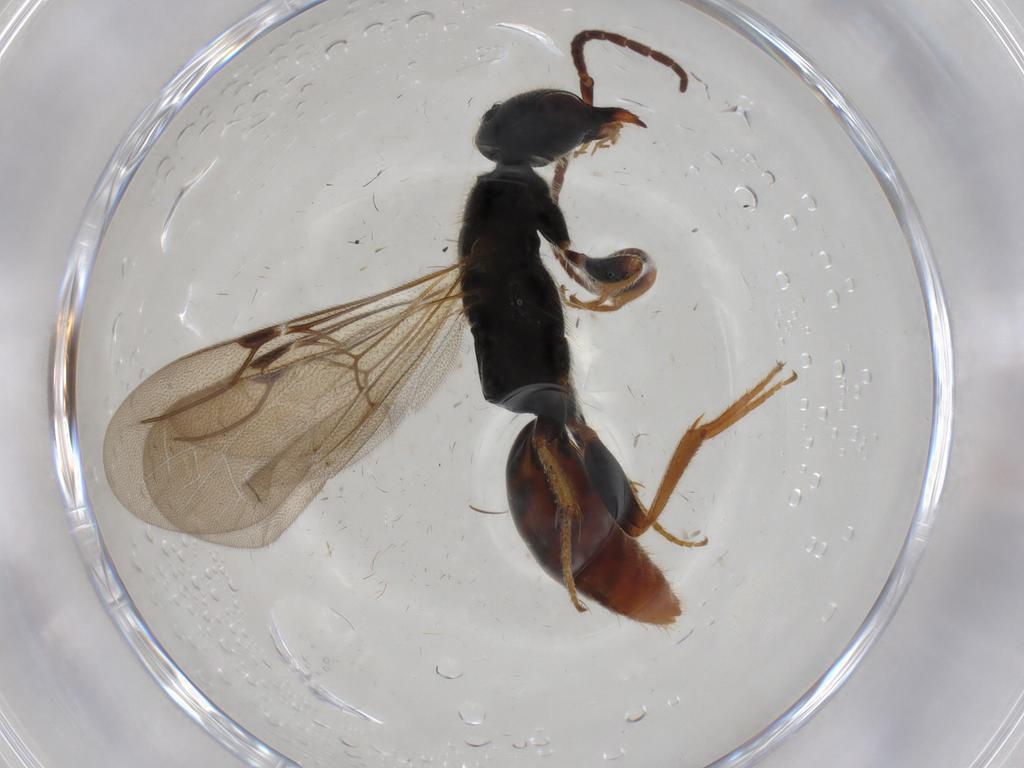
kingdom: Animalia
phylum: Arthropoda
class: Insecta
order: Hymenoptera
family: Bethylidae
